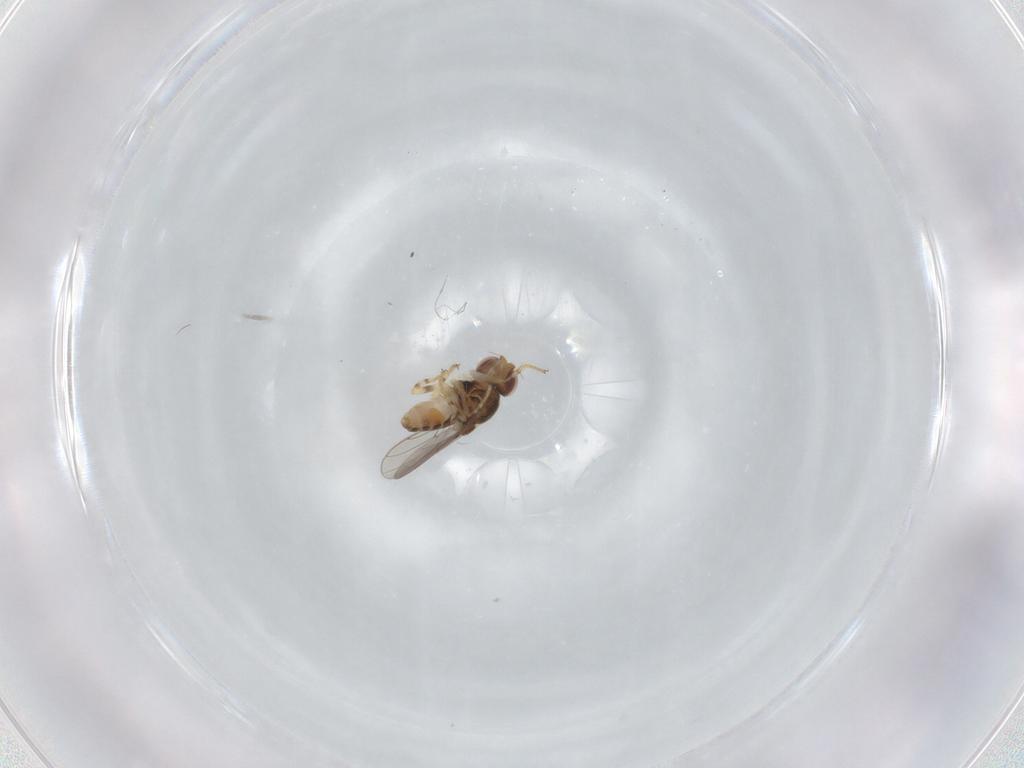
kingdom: Animalia
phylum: Arthropoda
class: Insecta
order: Diptera
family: Chloropidae
